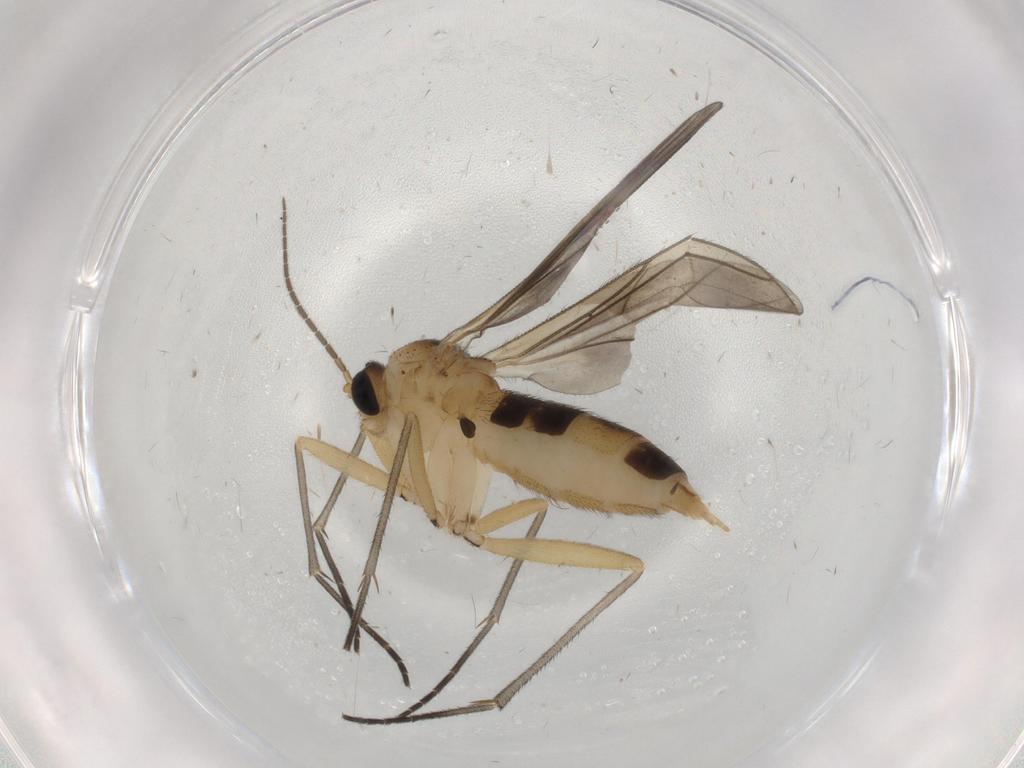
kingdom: Animalia
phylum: Arthropoda
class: Insecta
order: Diptera
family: Sciaridae
